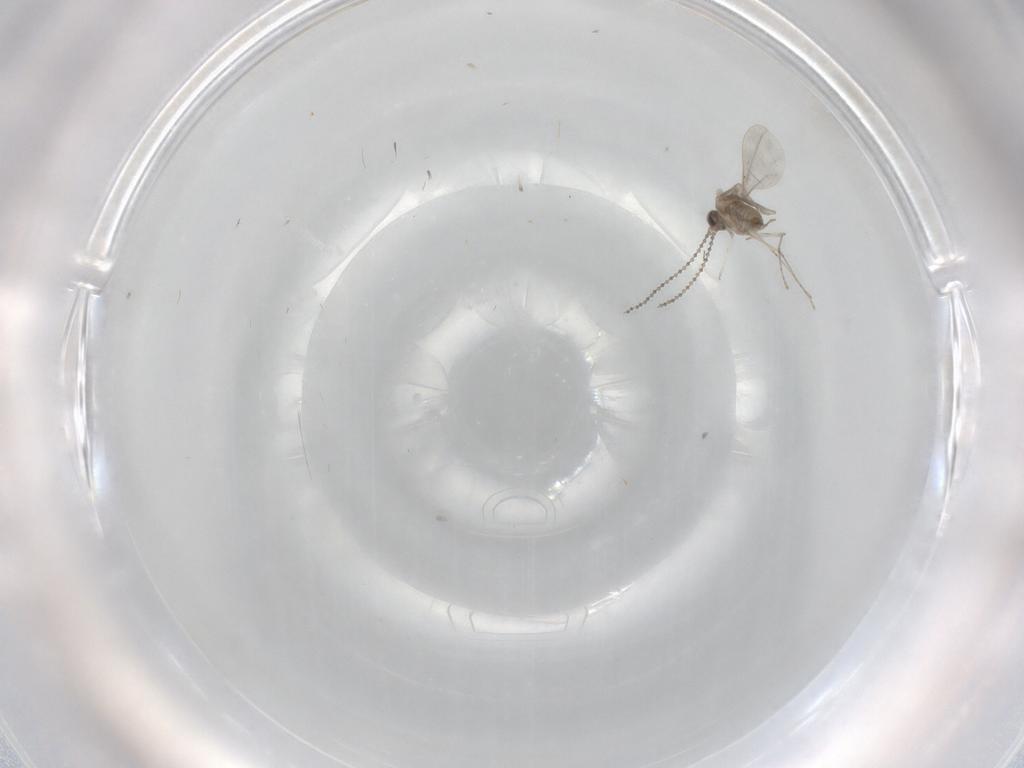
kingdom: Animalia
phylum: Arthropoda
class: Insecta
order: Diptera
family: Cecidomyiidae
